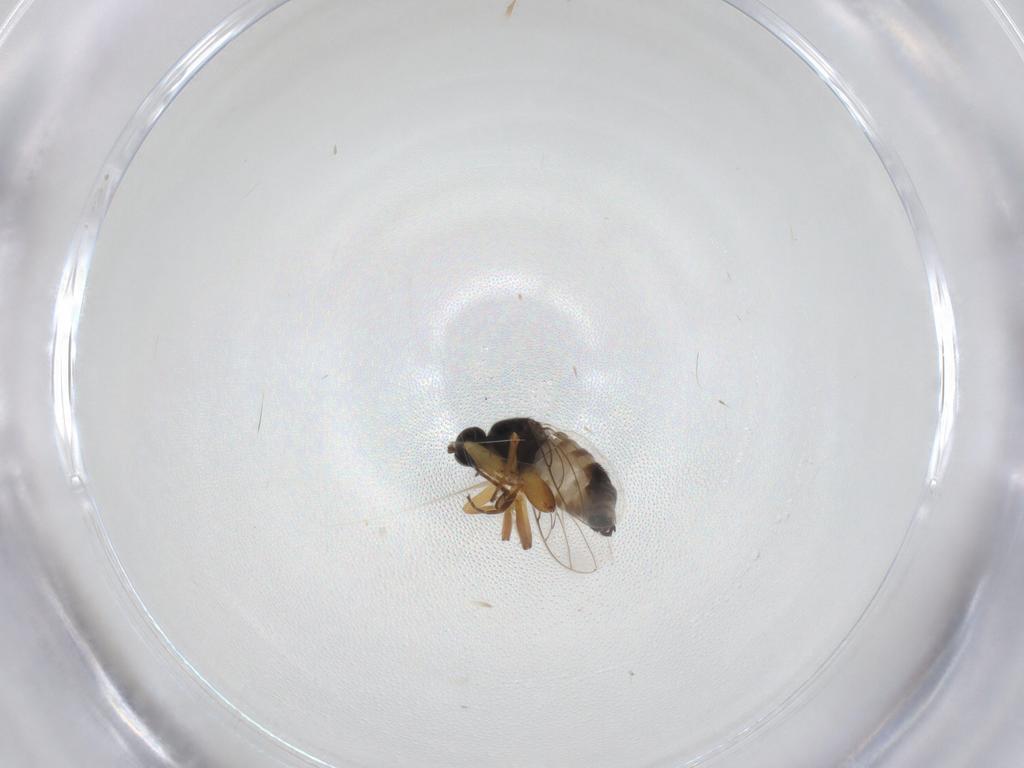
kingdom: Animalia
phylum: Arthropoda
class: Insecta
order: Diptera
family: Hybotidae
